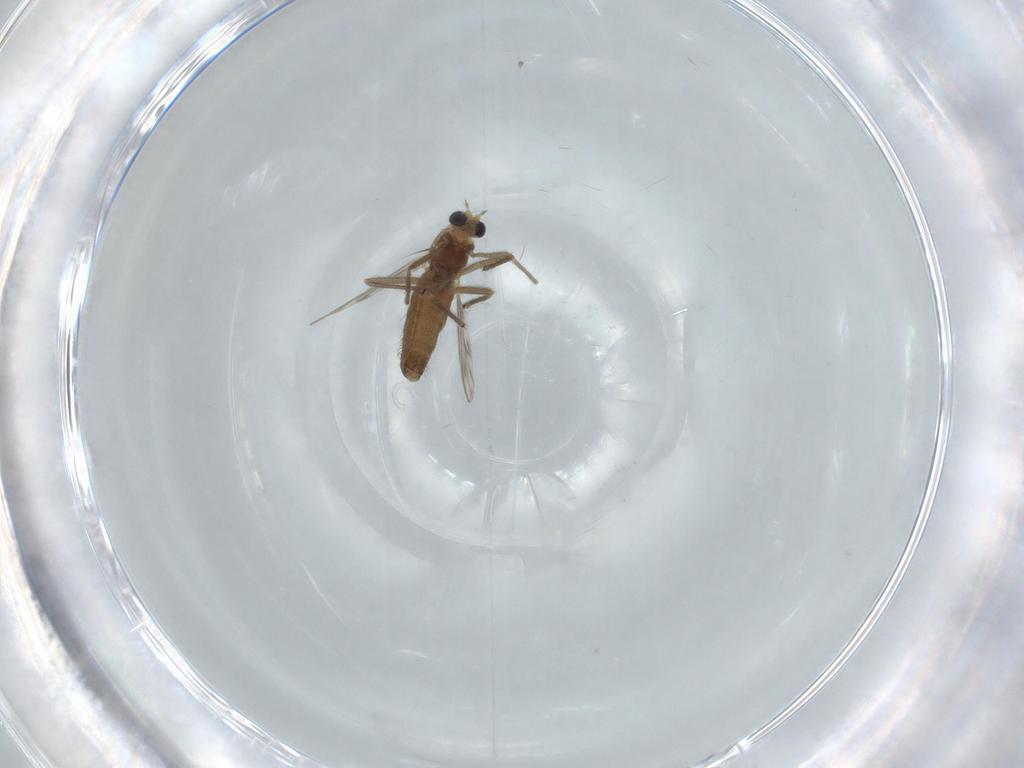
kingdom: Animalia
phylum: Arthropoda
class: Insecta
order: Diptera
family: Chironomidae
